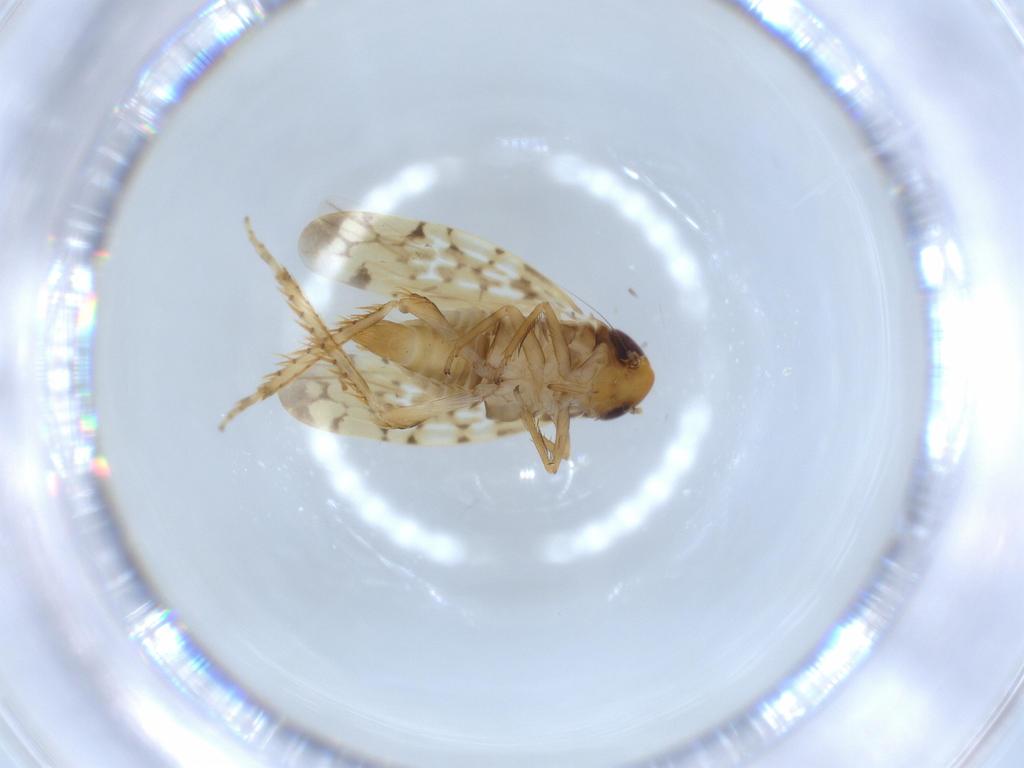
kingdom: Animalia
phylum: Arthropoda
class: Insecta
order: Hemiptera
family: Cicadellidae
